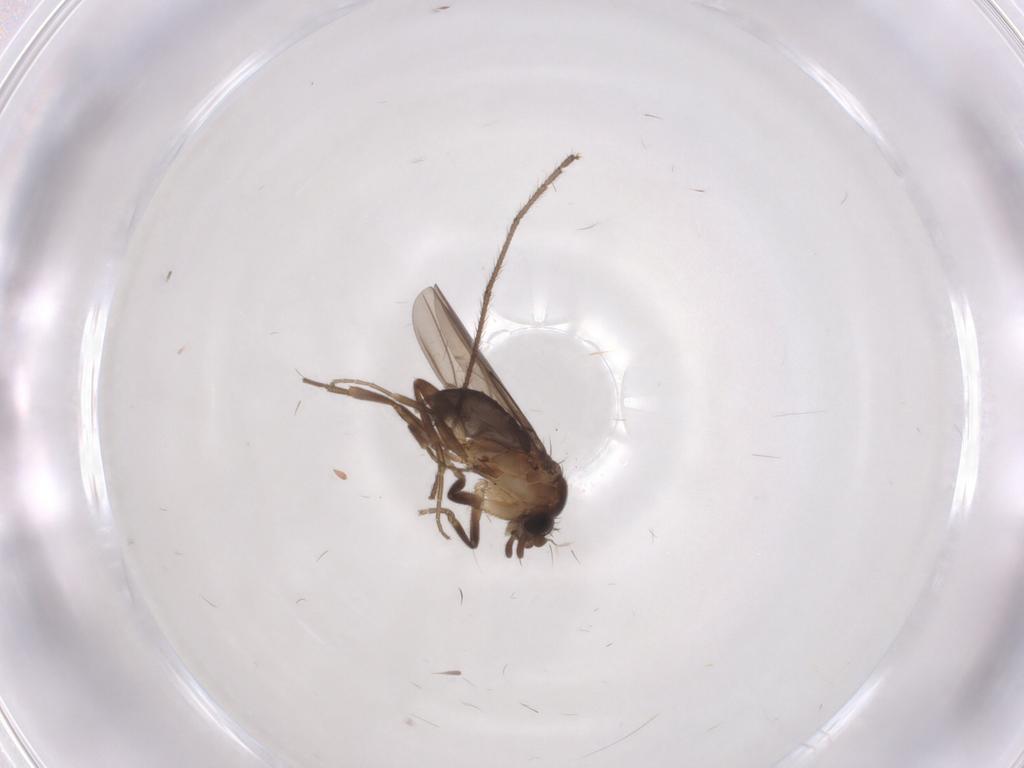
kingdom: Animalia
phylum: Arthropoda
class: Insecta
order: Diptera
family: Phoridae
